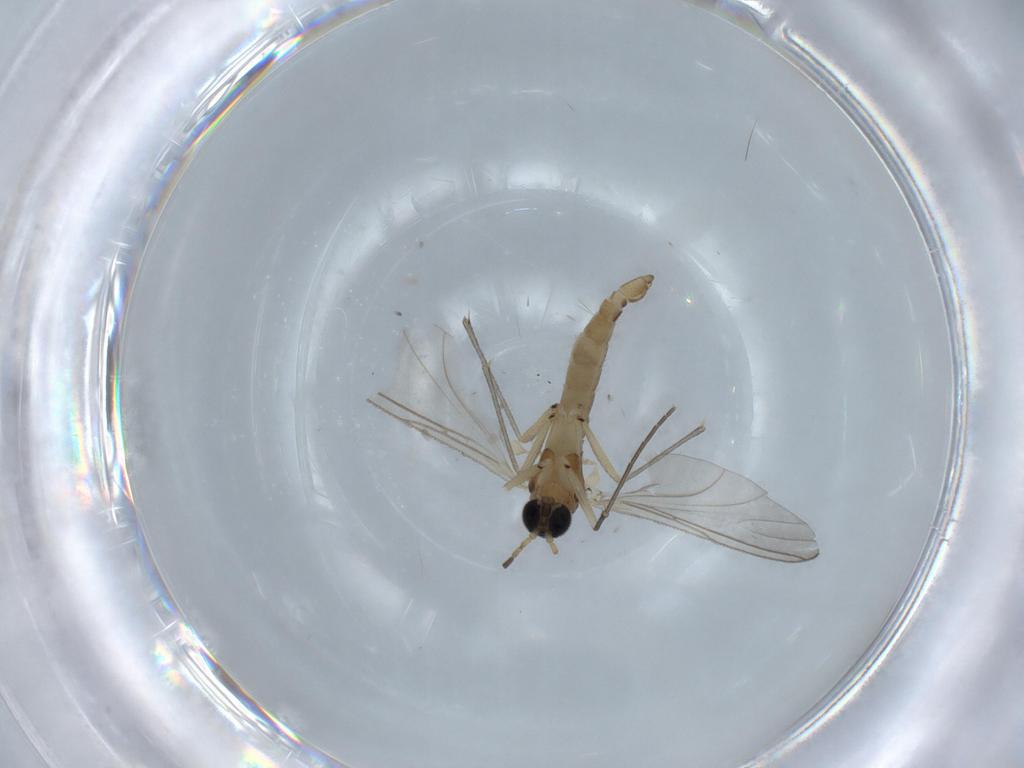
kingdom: Animalia
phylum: Arthropoda
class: Insecta
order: Diptera
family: Sciaridae
